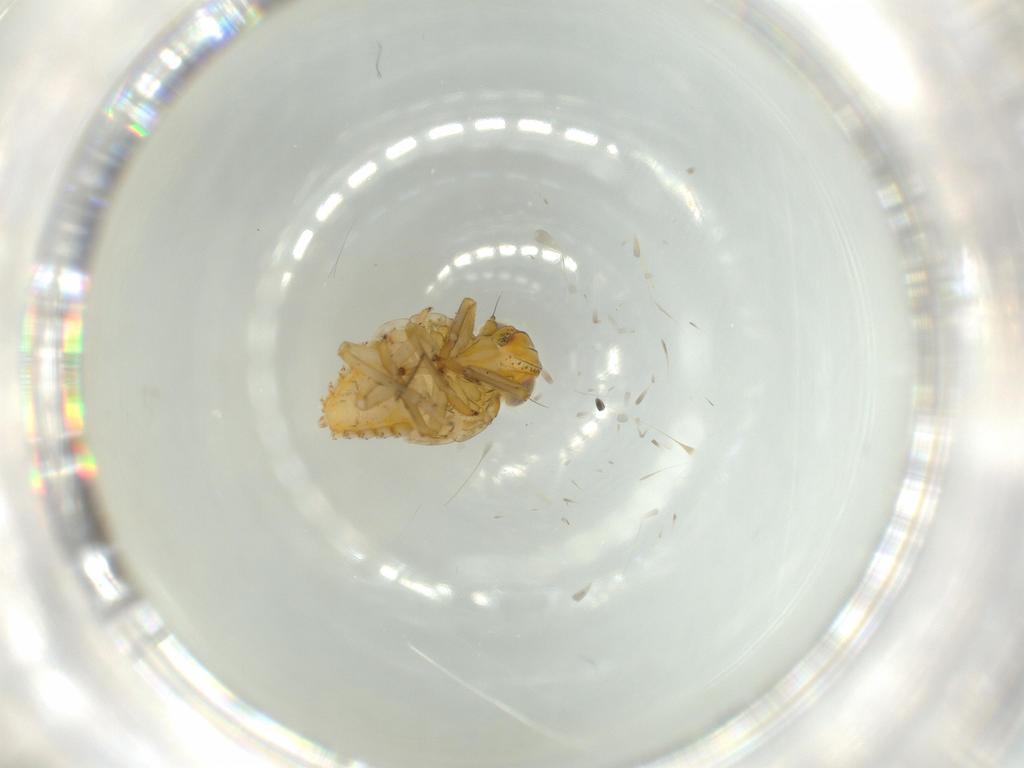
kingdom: Animalia
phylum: Arthropoda
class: Insecta
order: Hemiptera
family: Issidae
